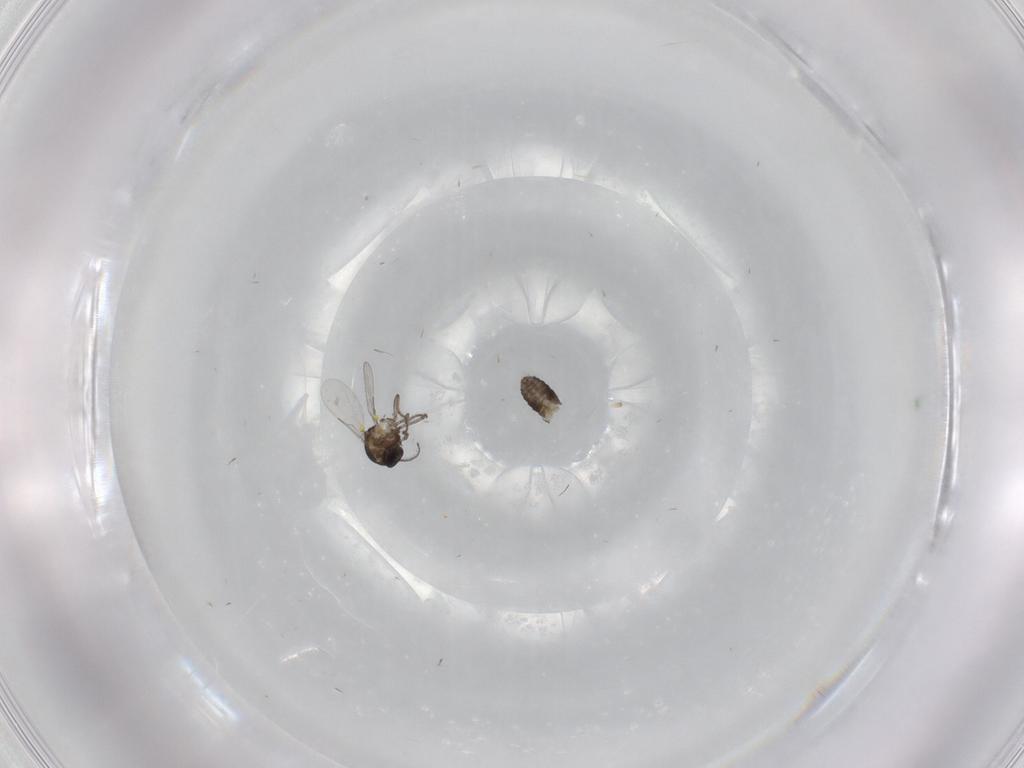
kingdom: Animalia
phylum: Arthropoda
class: Insecta
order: Diptera
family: Ceratopogonidae
